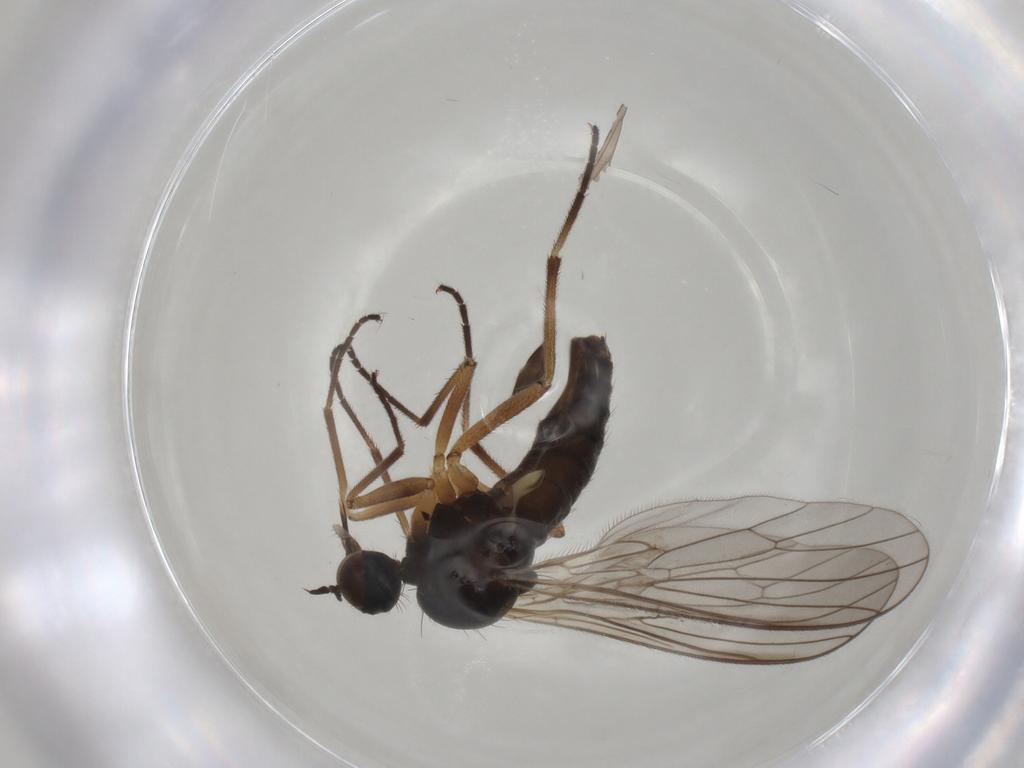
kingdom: Animalia
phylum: Arthropoda
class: Insecta
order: Diptera
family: Empididae
